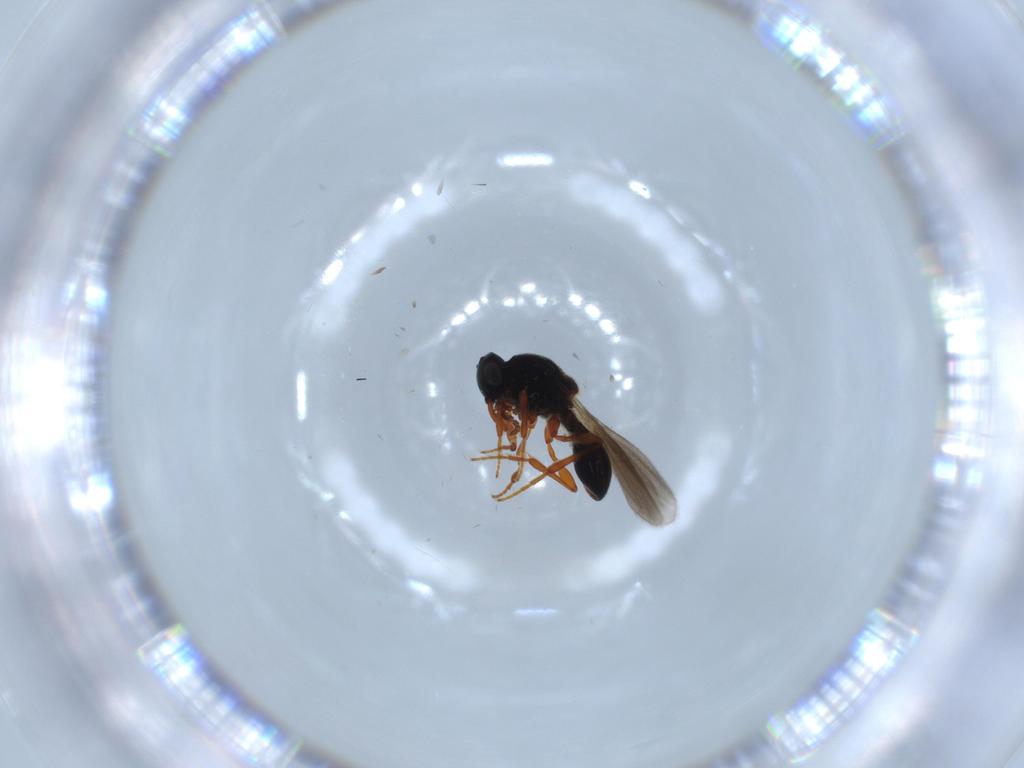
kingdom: Animalia
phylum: Arthropoda
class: Insecta
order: Hymenoptera
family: Platygastridae
